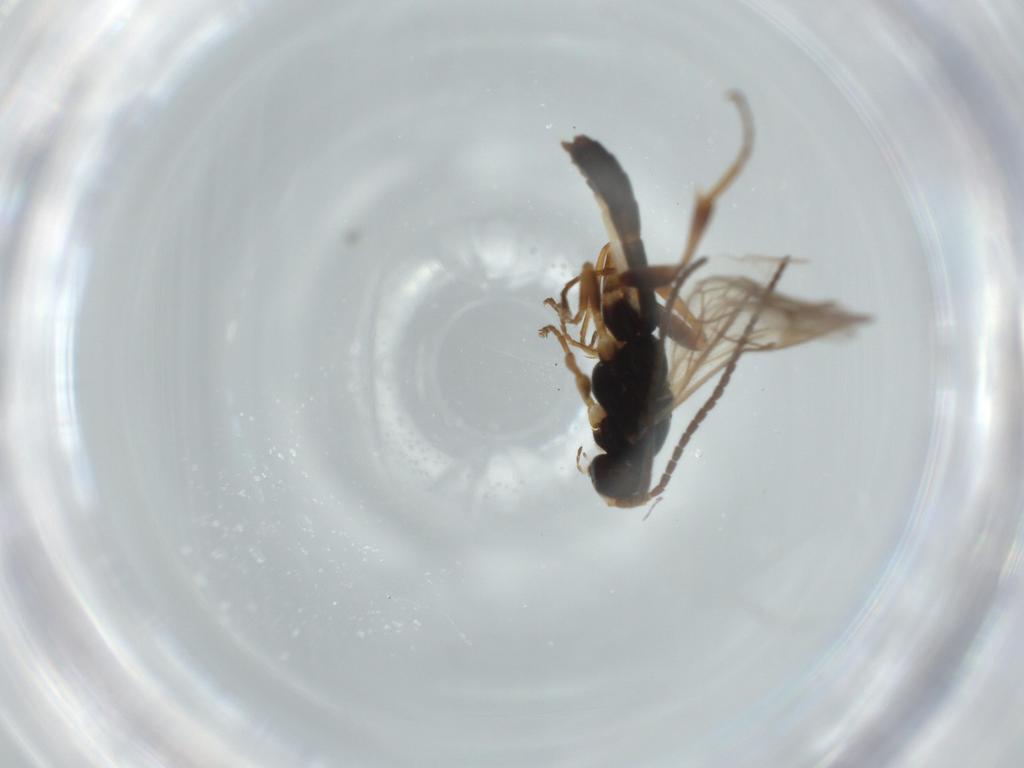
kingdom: Animalia
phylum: Arthropoda
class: Insecta
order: Hymenoptera
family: Ichneumonidae
